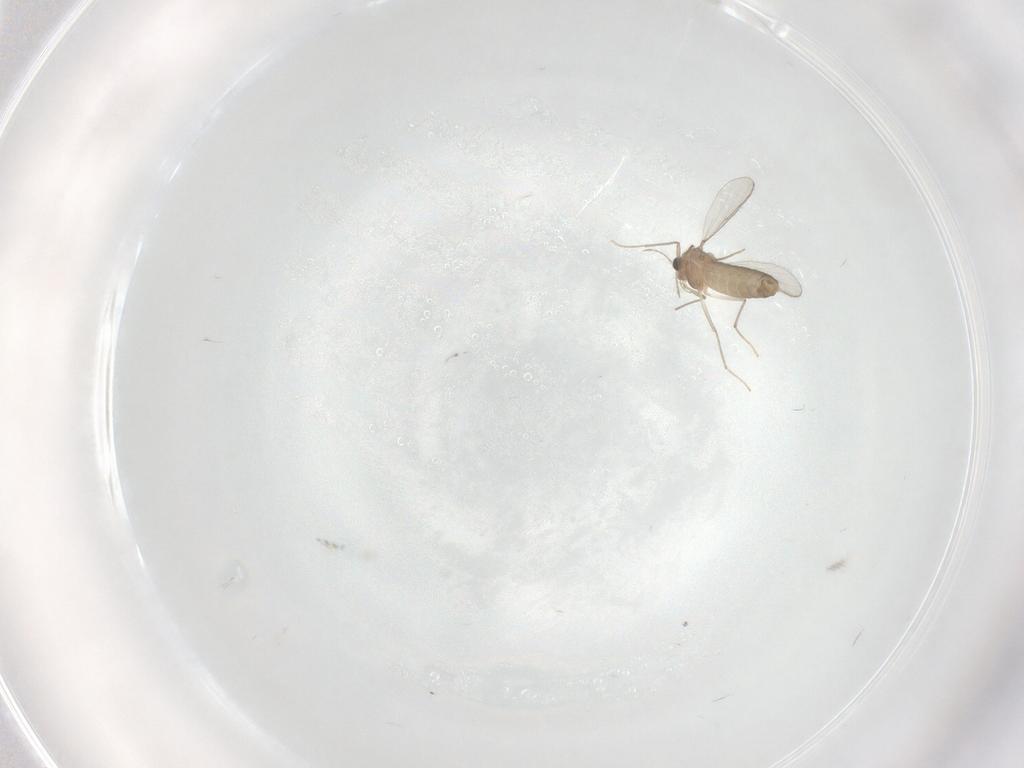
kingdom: Animalia
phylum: Arthropoda
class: Insecta
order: Diptera
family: Chironomidae
